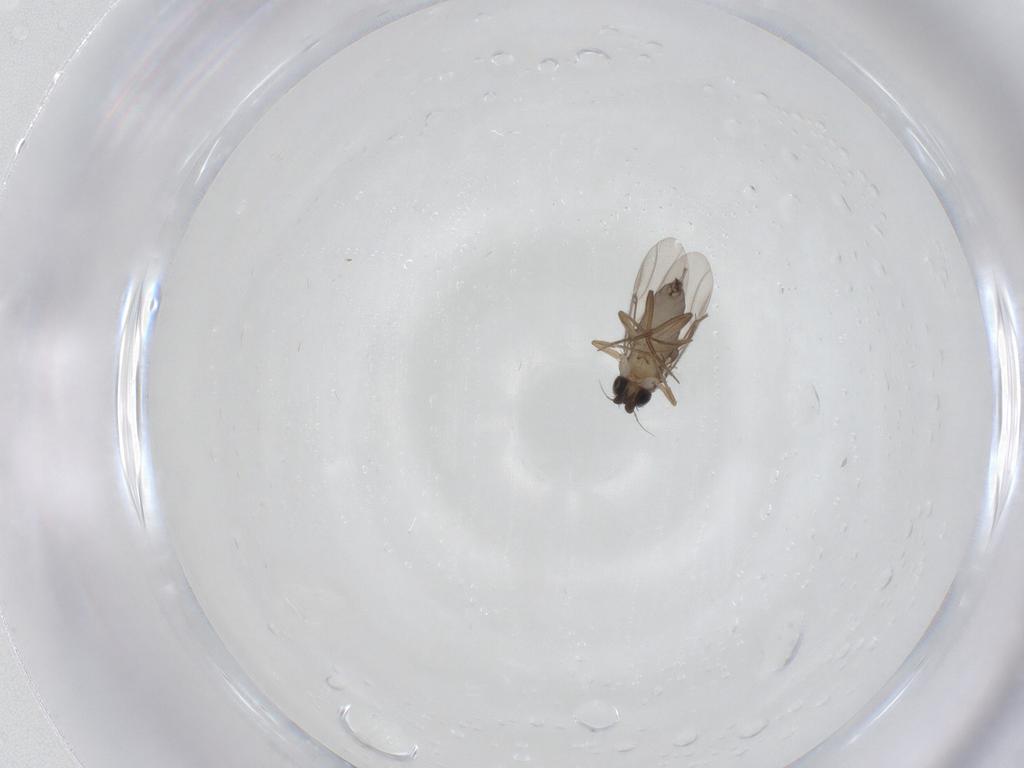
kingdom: Animalia
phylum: Arthropoda
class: Insecta
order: Diptera
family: Phoridae
